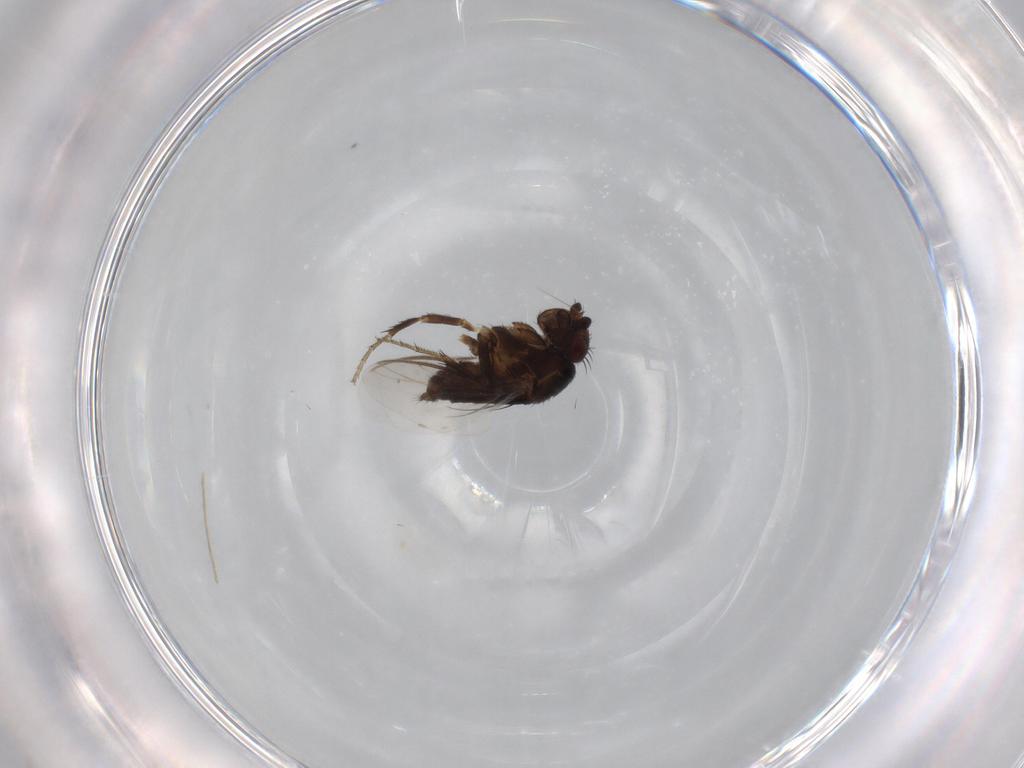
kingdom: Animalia
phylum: Arthropoda
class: Insecta
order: Diptera
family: Sphaeroceridae
